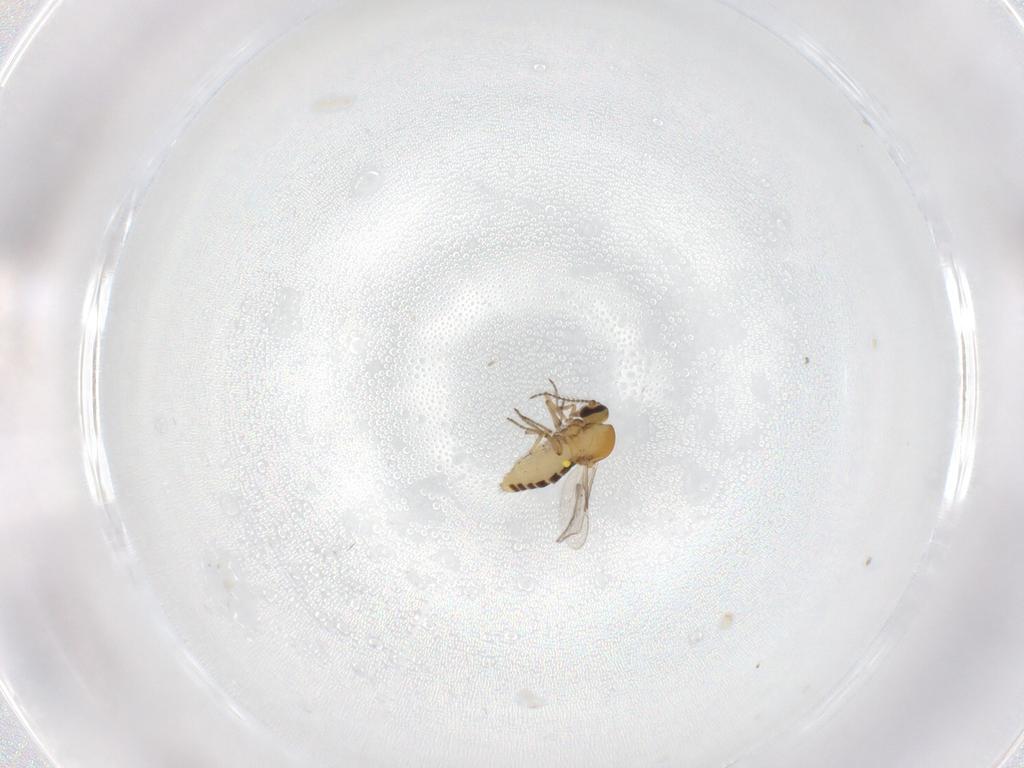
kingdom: Animalia
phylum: Arthropoda
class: Insecta
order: Diptera
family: Ceratopogonidae
